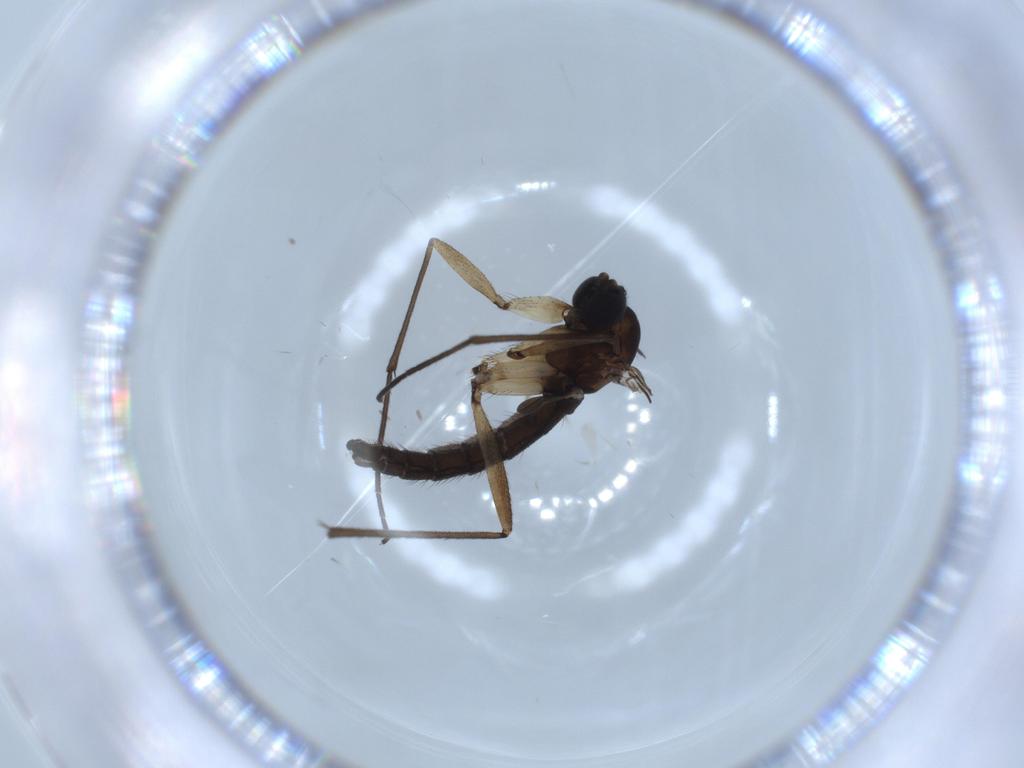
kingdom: Animalia
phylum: Arthropoda
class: Insecta
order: Diptera
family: Sciaridae
